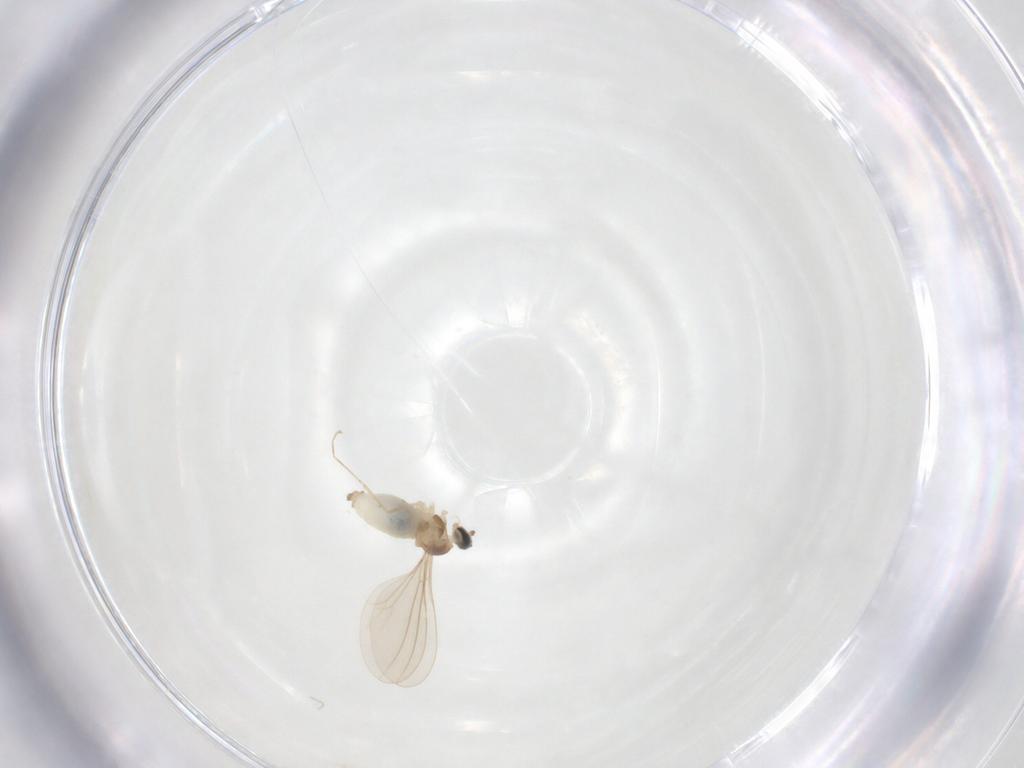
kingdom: Animalia
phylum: Arthropoda
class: Insecta
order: Diptera
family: Cecidomyiidae
